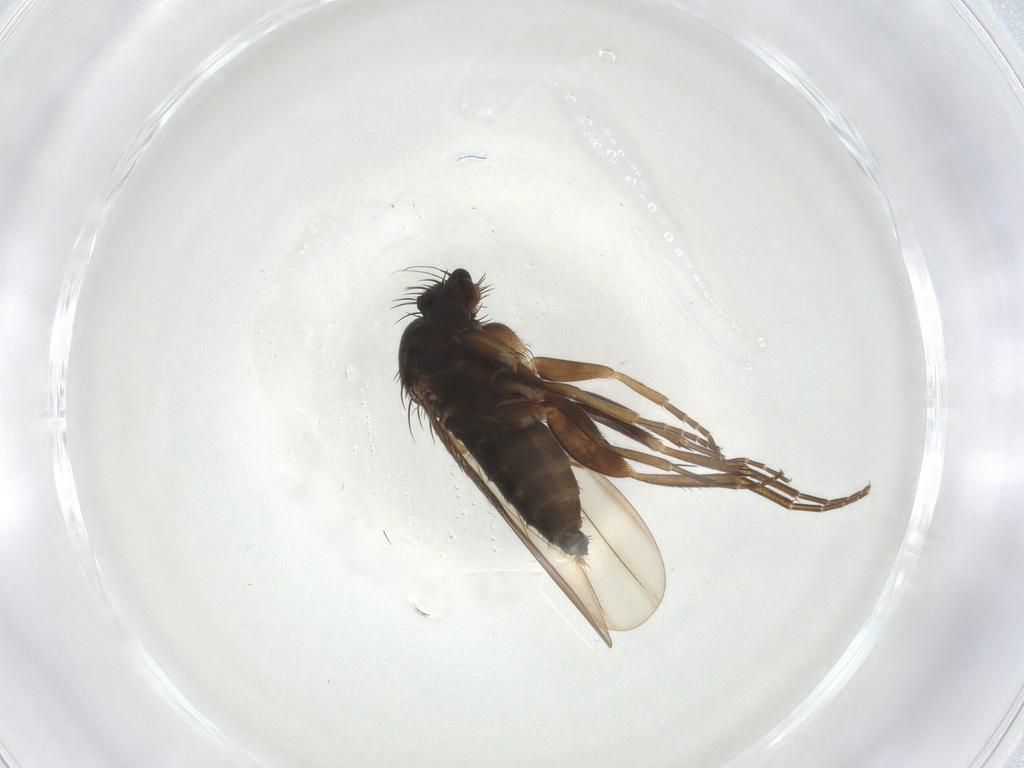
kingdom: Animalia
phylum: Arthropoda
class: Insecta
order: Diptera
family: Phoridae
